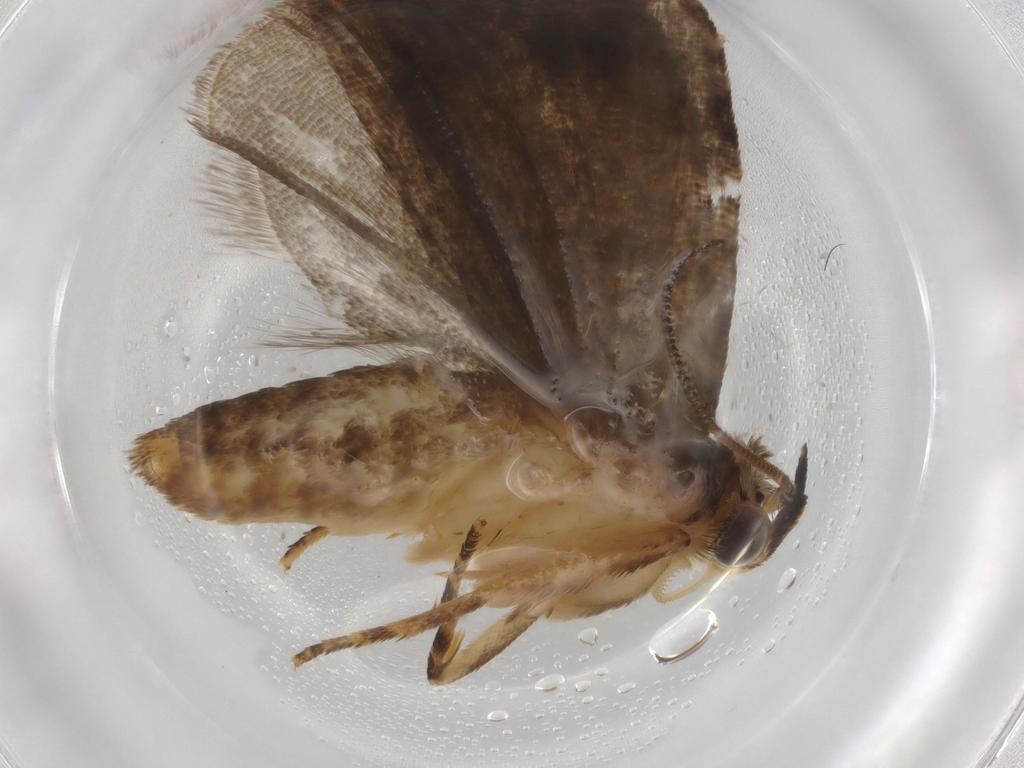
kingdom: Animalia
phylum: Arthropoda
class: Insecta
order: Lepidoptera
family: Tortricidae
